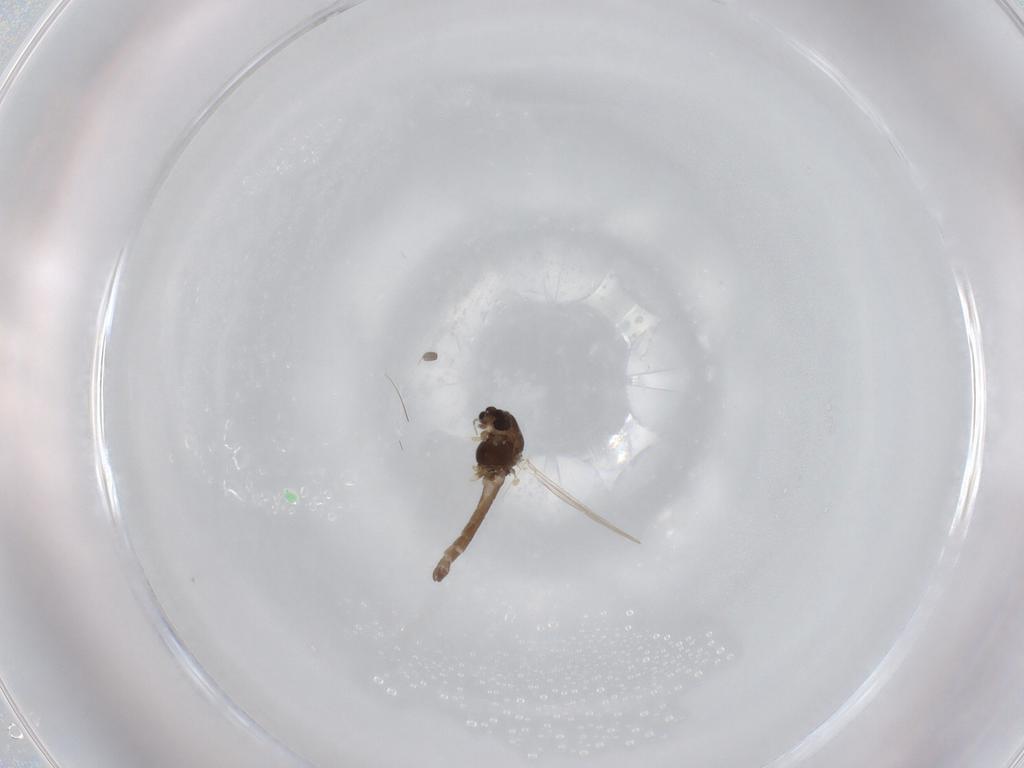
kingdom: Animalia
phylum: Arthropoda
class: Insecta
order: Diptera
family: Chironomidae
